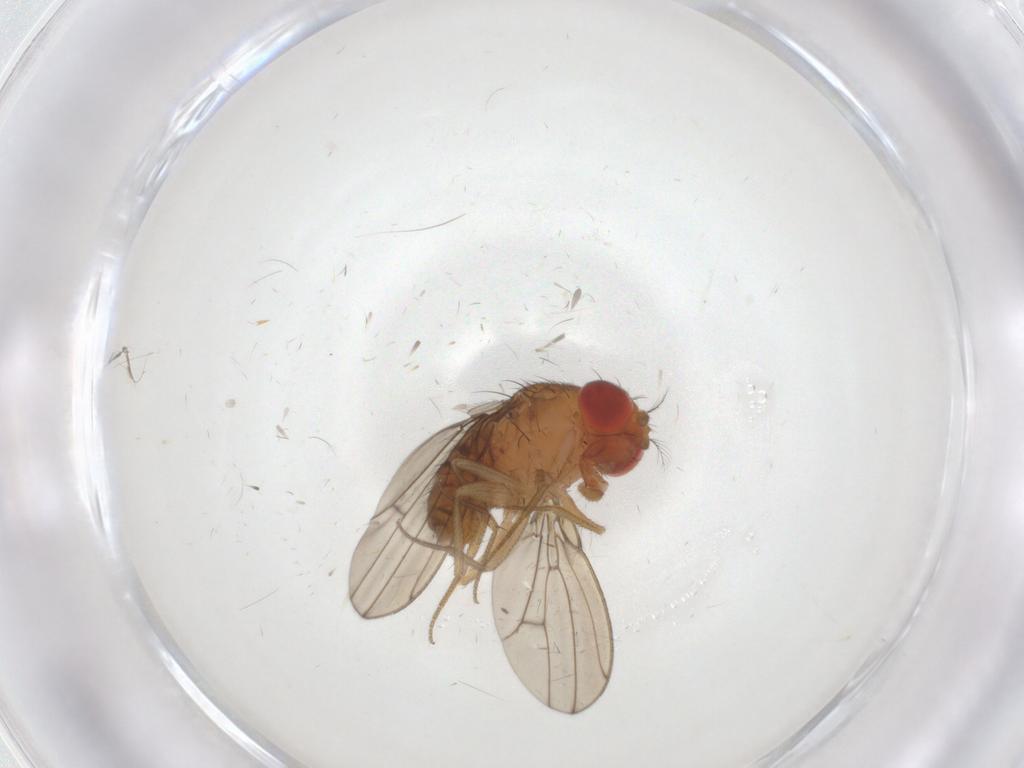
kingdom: Animalia
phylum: Arthropoda
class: Insecta
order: Diptera
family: Drosophilidae
